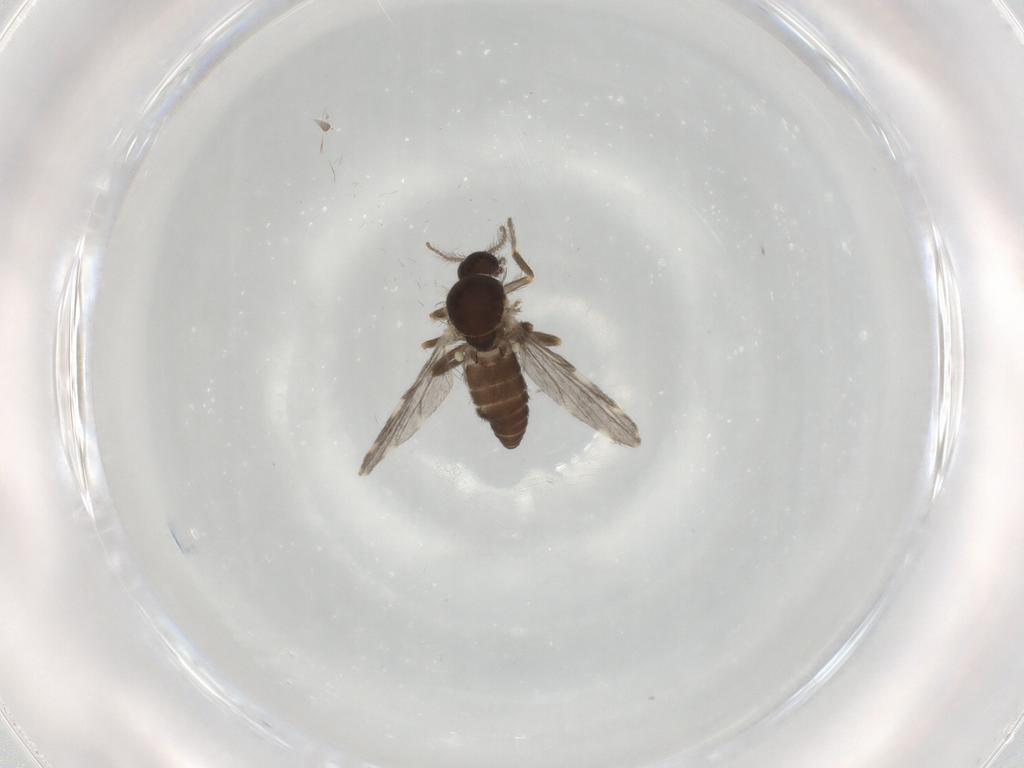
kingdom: Animalia
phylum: Arthropoda
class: Insecta
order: Diptera
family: Ceratopogonidae
